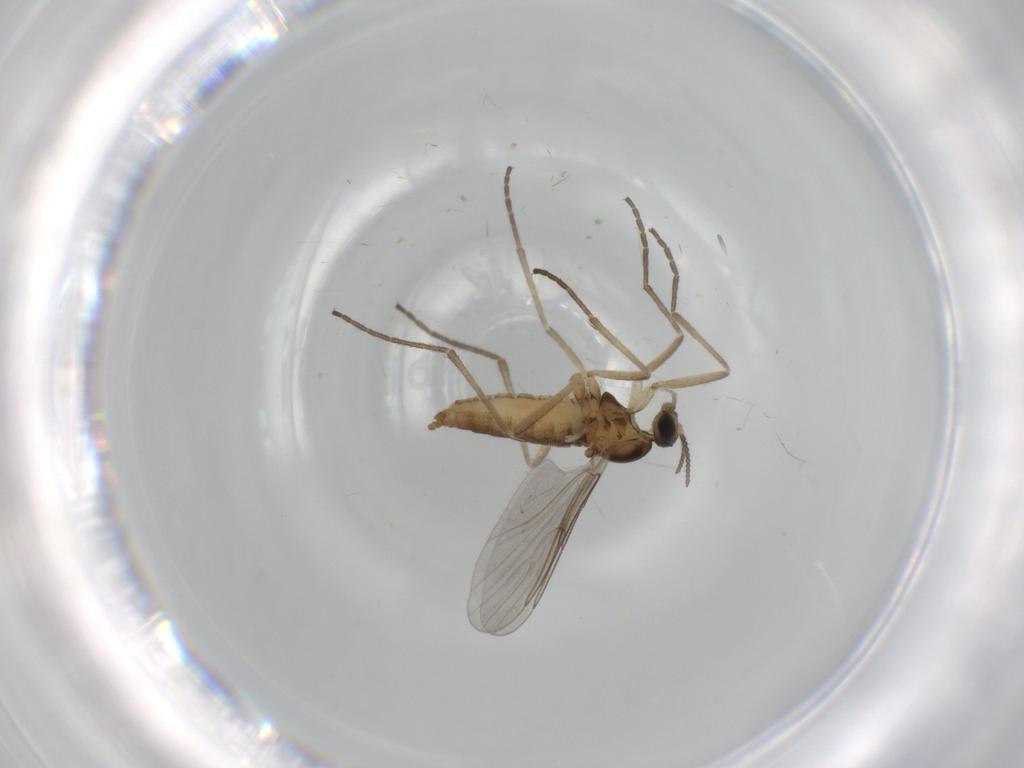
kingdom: Animalia
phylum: Arthropoda
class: Insecta
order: Diptera
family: Cecidomyiidae
